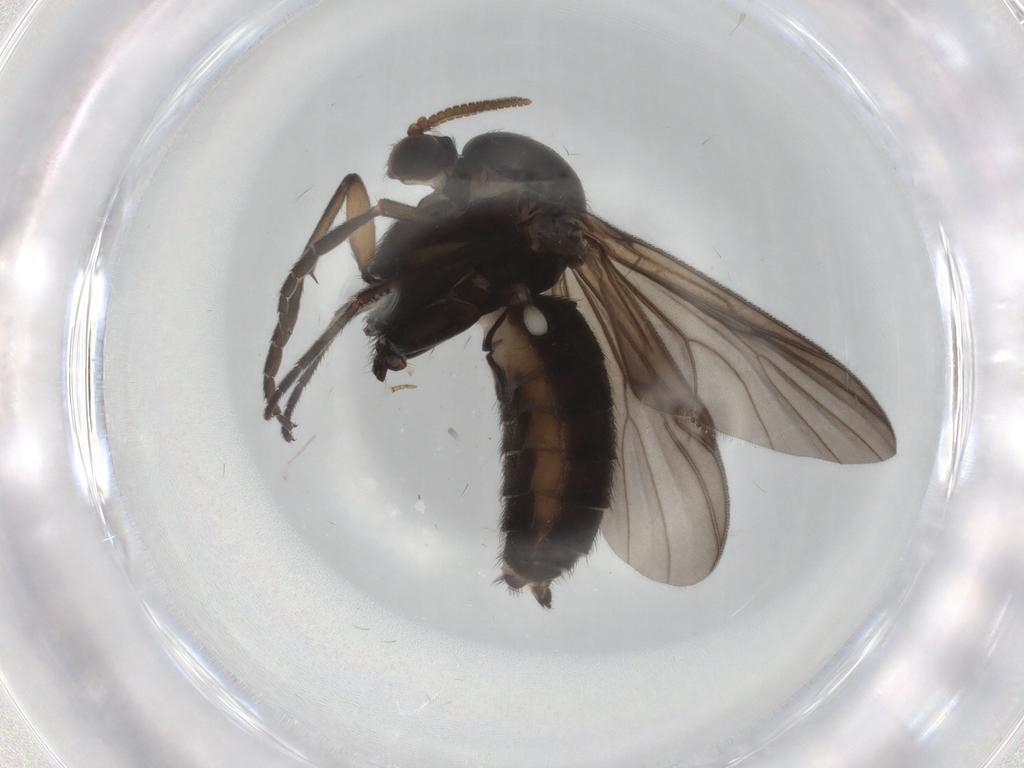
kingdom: Animalia
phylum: Arthropoda
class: Insecta
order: Diptera
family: Mycetophilidae
